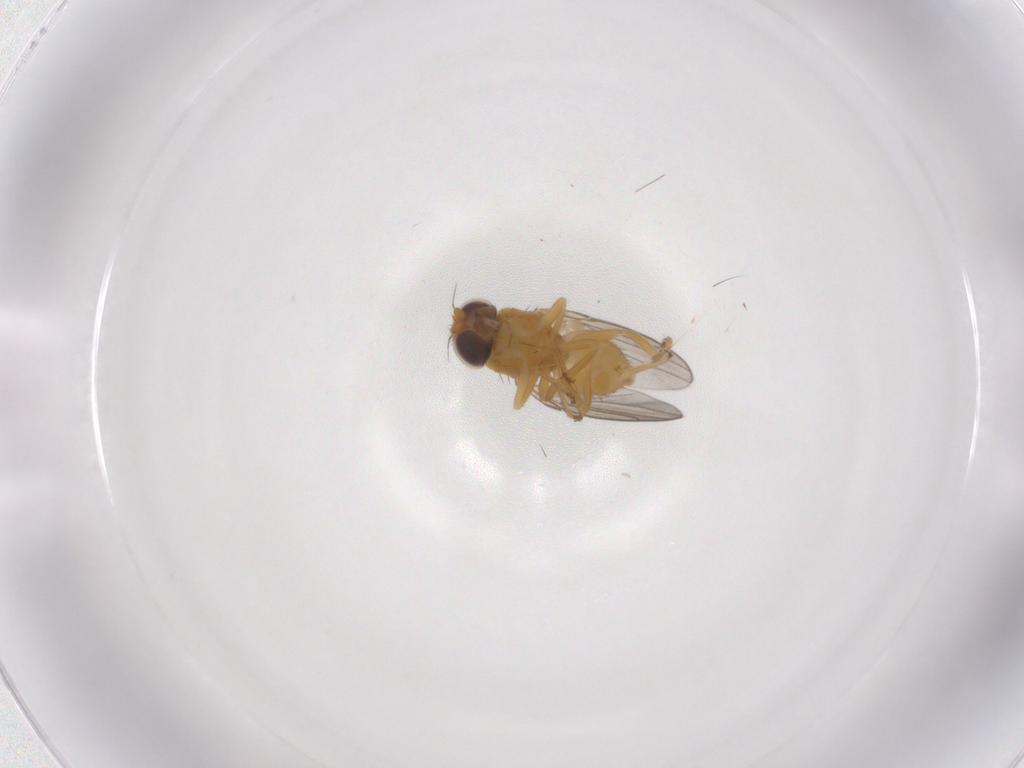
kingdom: Animalia
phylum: Arthropoda
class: Insecta
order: Diptera
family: Chloropidae
